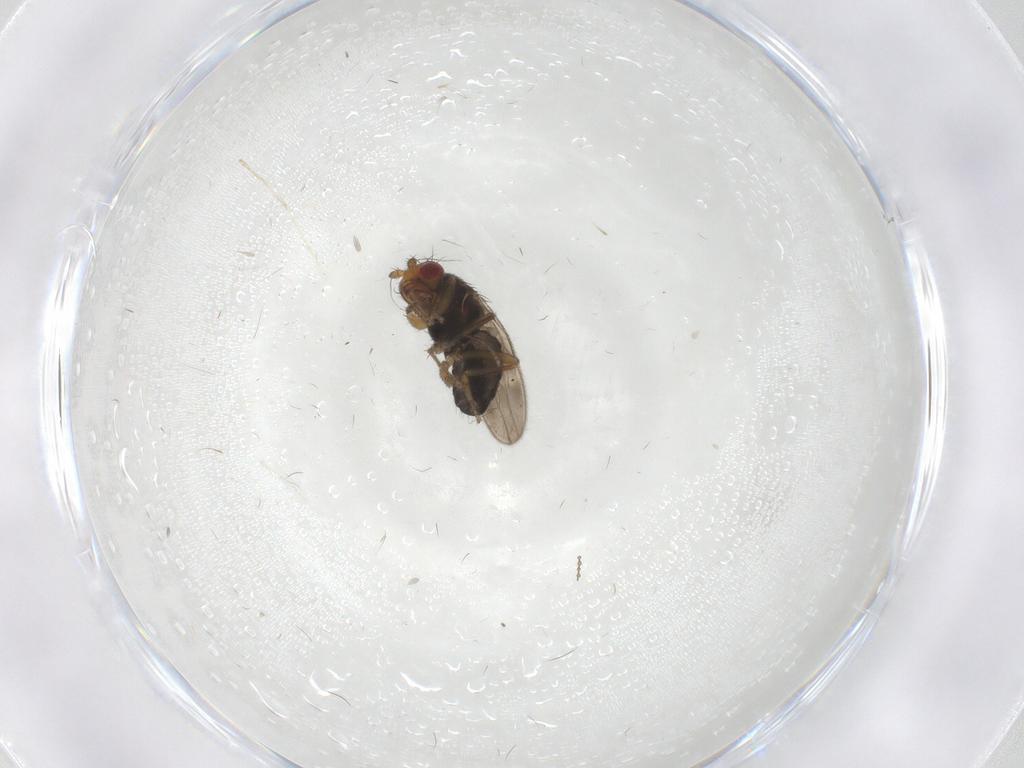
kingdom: Animalia
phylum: Arthropoda
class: Insecta
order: Diptera
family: Sphaeroceridae
